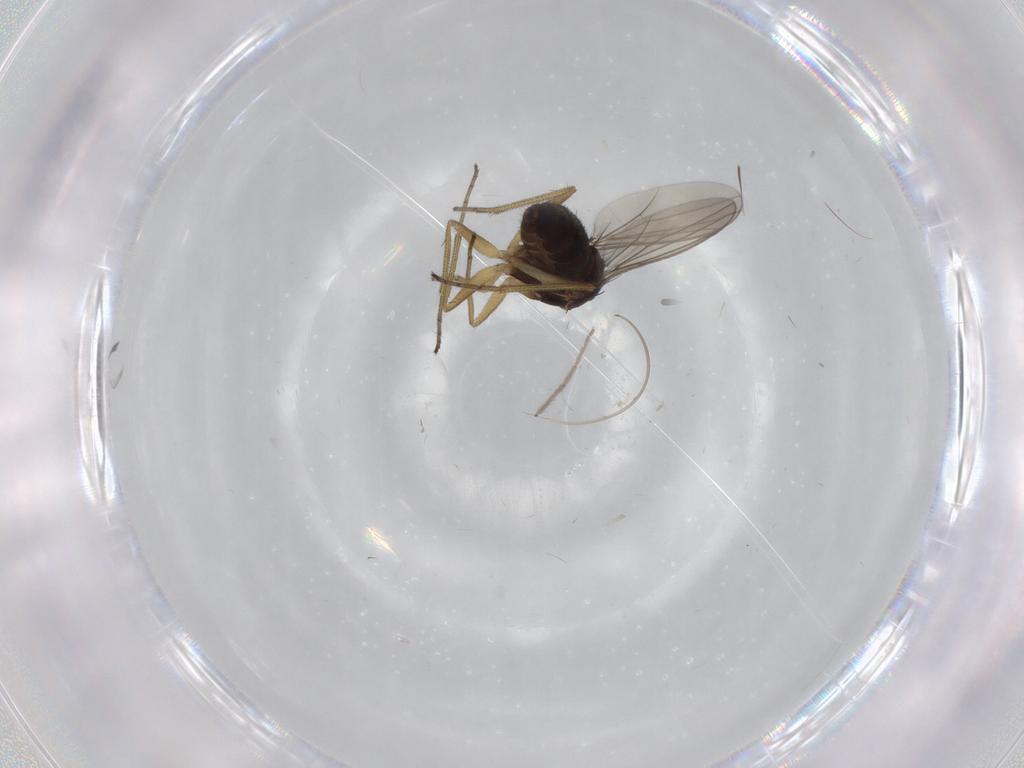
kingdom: Animalia
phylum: Arthropoda
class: Insecta
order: Diptera
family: Dolichopodidae
